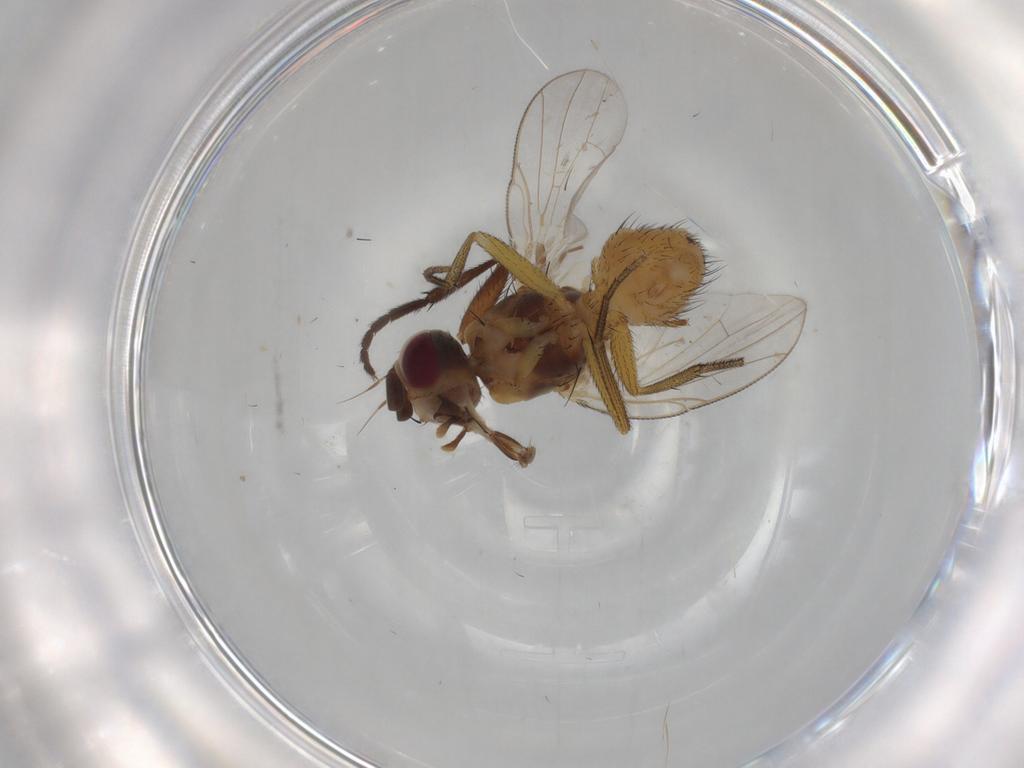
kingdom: Animalia
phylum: Arthropoda
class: Insecta
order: Diptera
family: Muscidae
